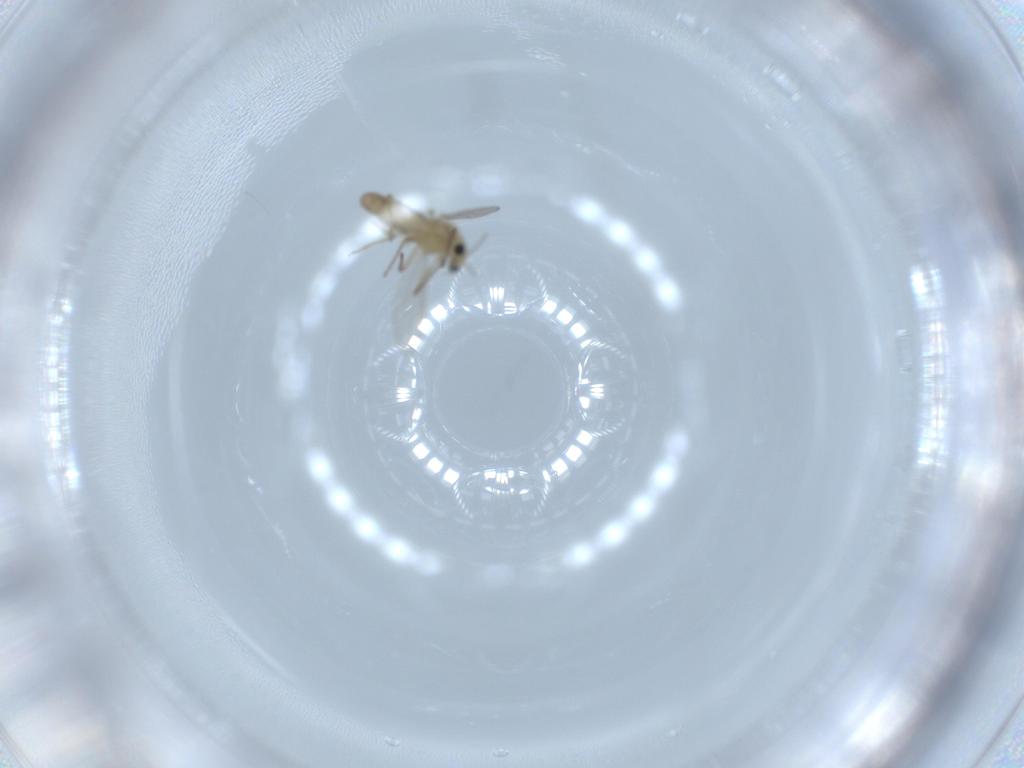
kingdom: Animalia
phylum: Arthropoda
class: Insecta
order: Diptera
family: Chironomidae
